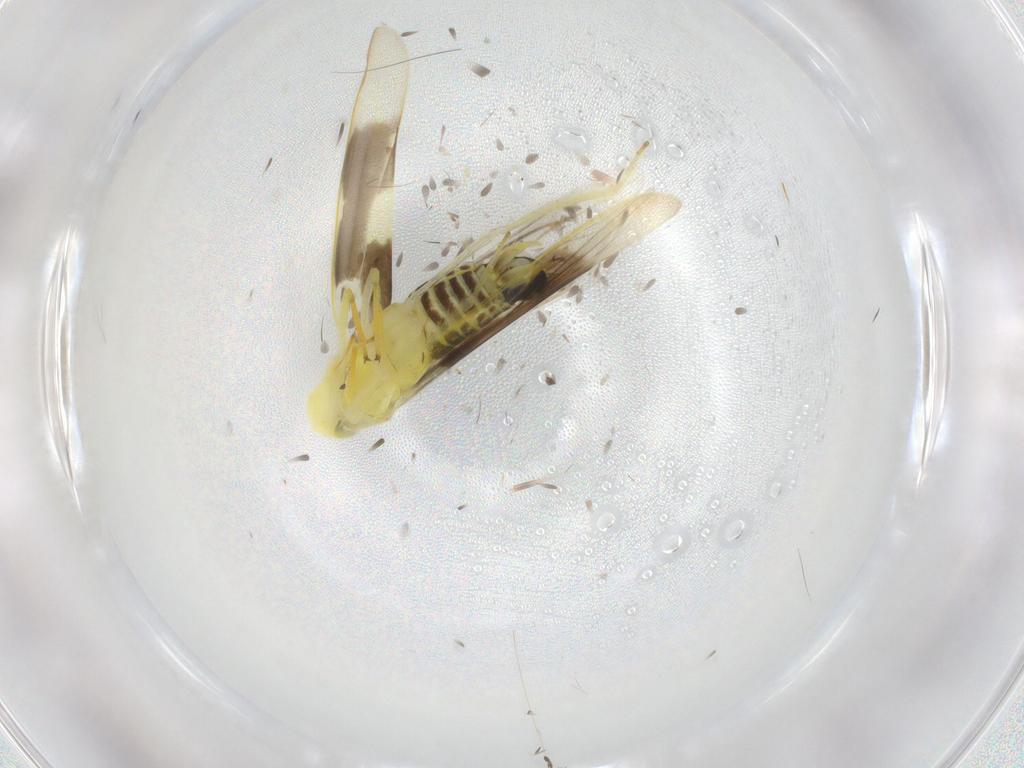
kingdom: Animalia
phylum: Arthropoda
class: Insecta
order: Hemiptera
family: Cicadellidae
